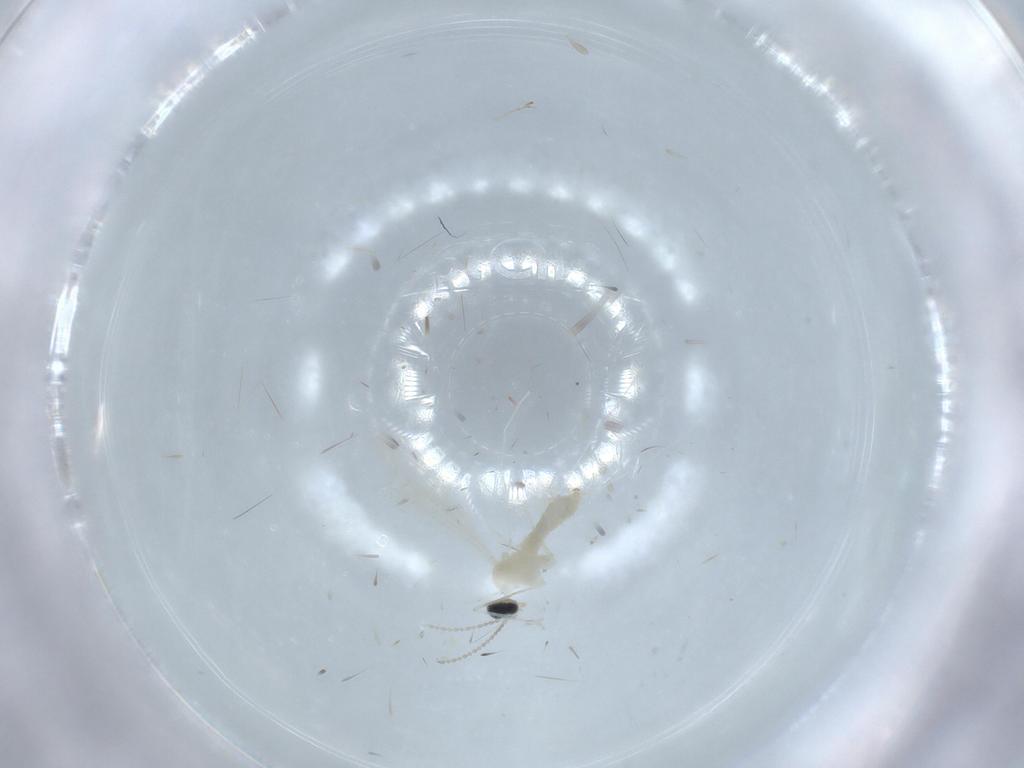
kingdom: Animalia
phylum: Arthropoda
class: Insecta
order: Diptera
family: Cecidomyiidae
